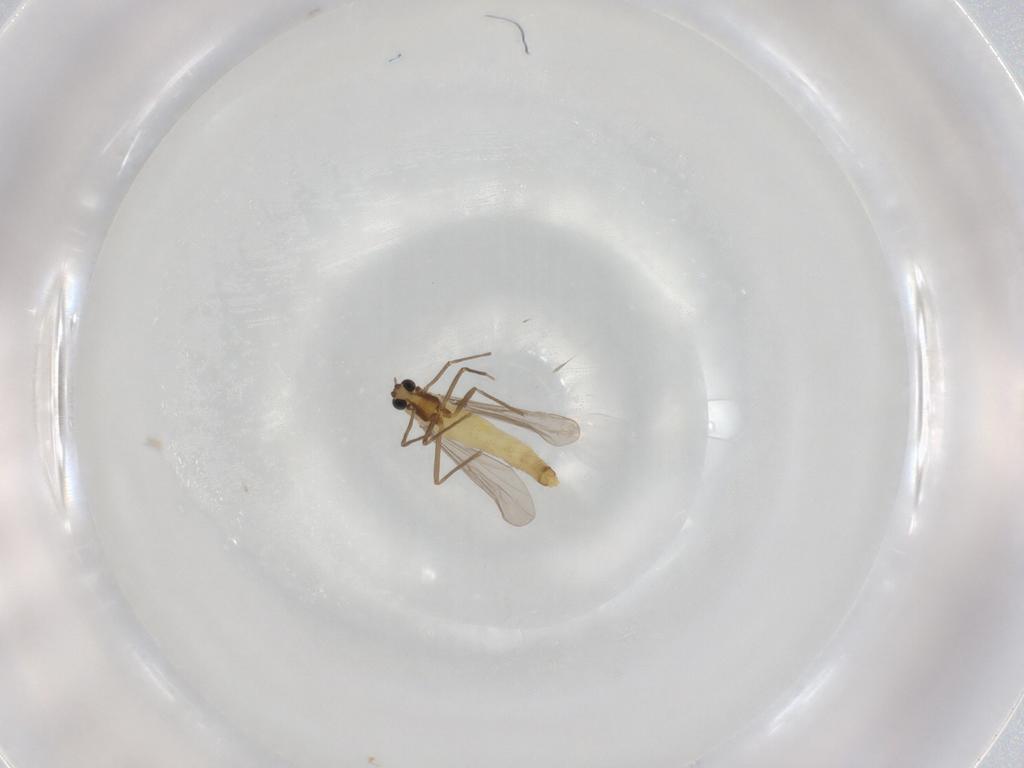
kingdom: Animalia
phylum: Arthropoda
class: Insecta
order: Diptera
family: Chironomidae
